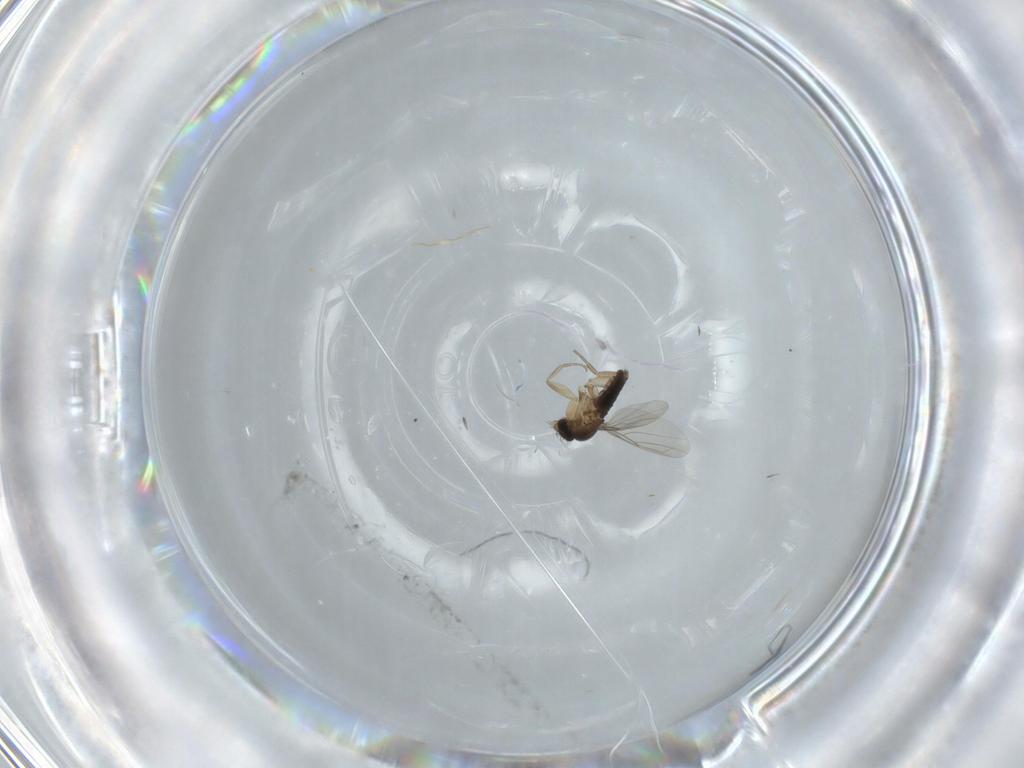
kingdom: Animalia
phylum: Arthropoda
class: Insecta
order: Diptera
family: Phoridae
